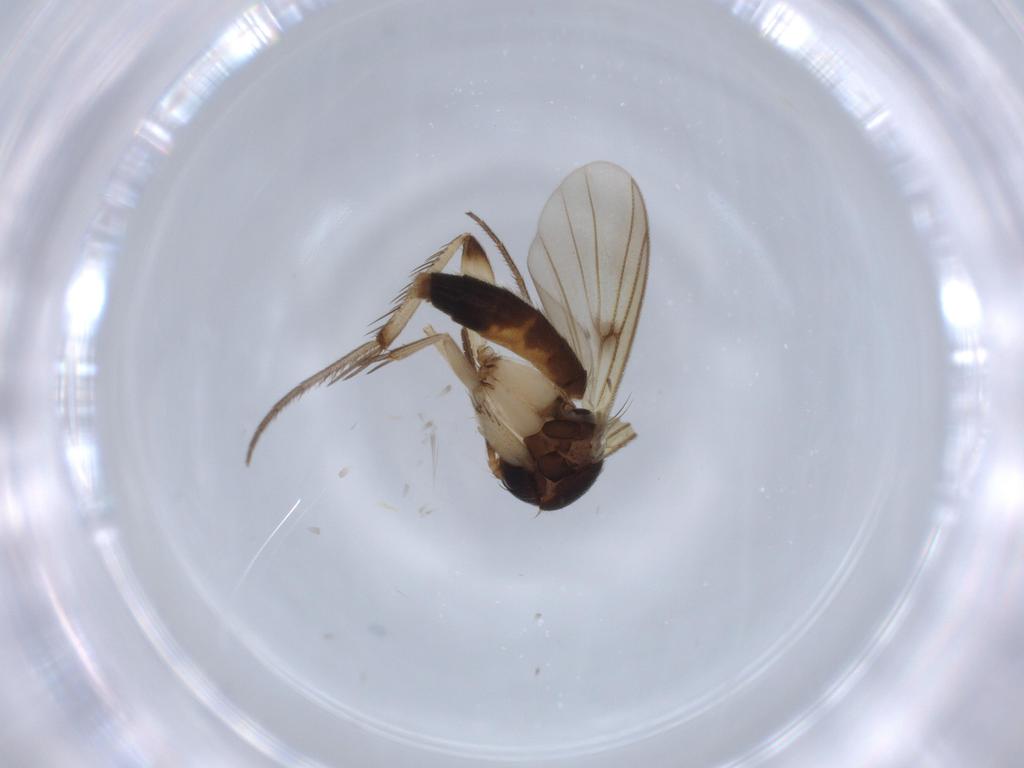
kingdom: Animalia
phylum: Arthropoda
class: Insecta
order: Diptera
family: Mycetophilidae
